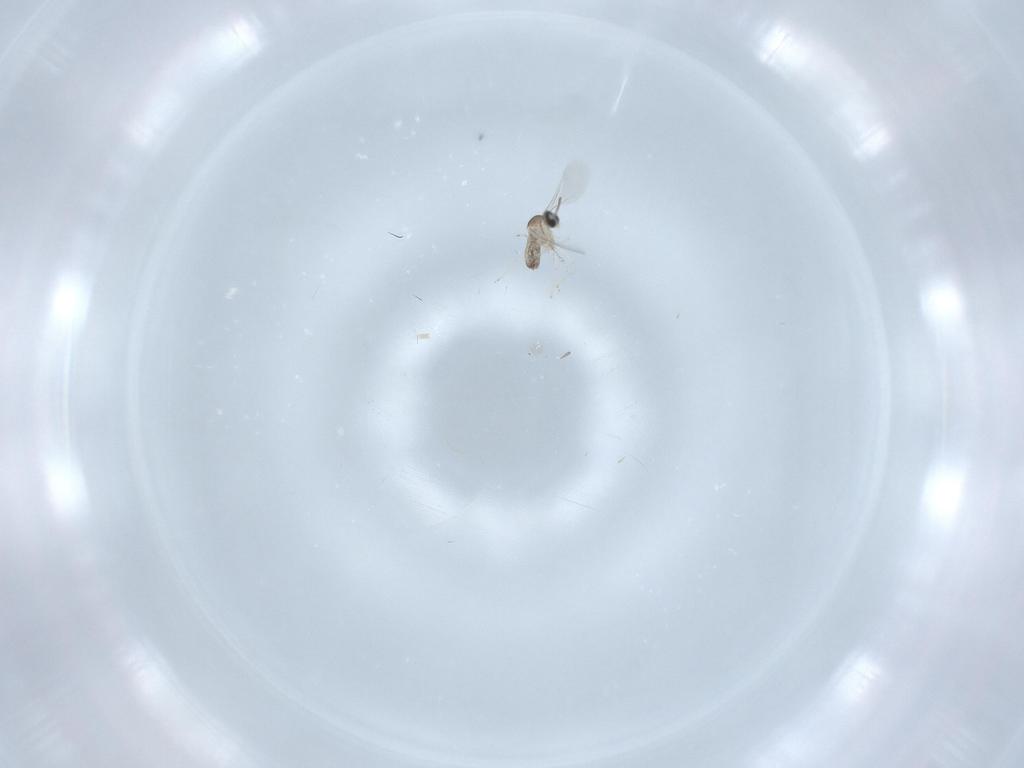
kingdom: Animalia
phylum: Arthropoda
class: Insecta
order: Diptera
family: Cecidomyiidae
